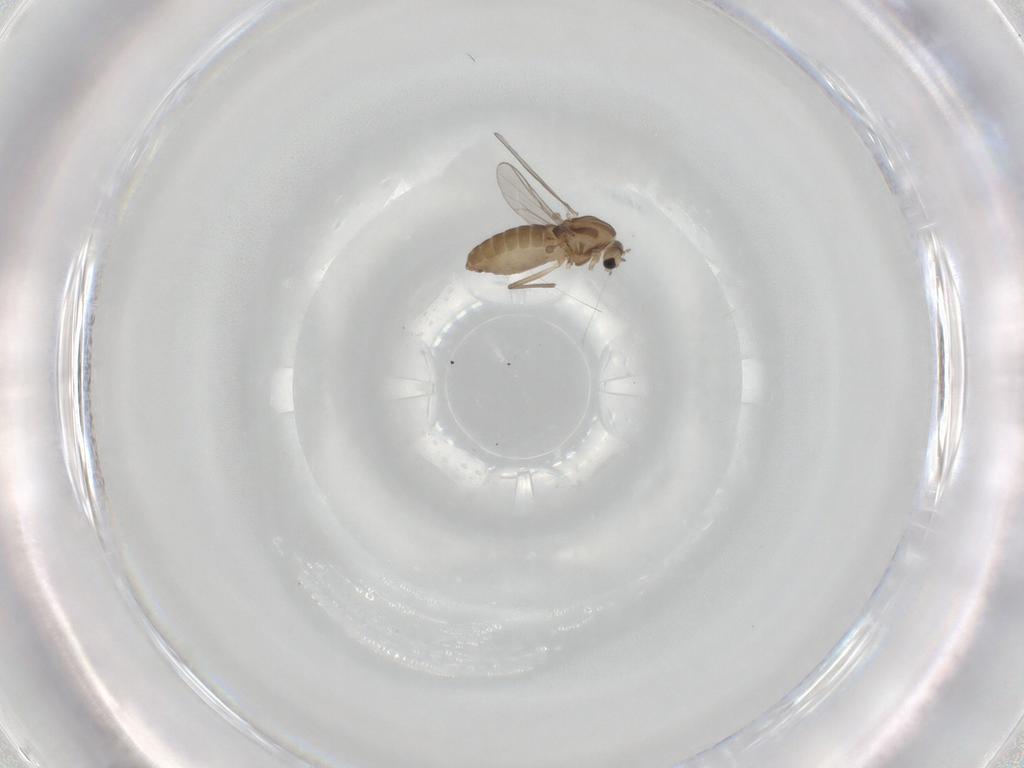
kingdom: Animalia
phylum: Arthropoda
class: Insecta
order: Diptera
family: Chironomidae
